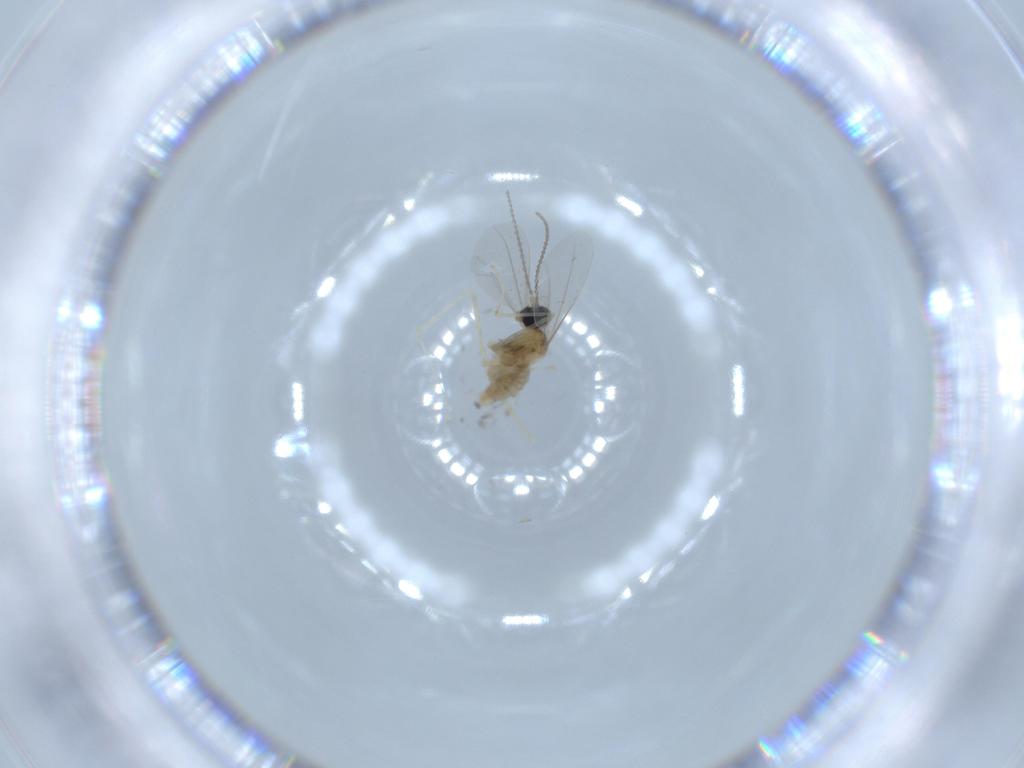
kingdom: Animalia
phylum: Arthropoda
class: Insecta
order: Diptera
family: Cecidomyiidae
